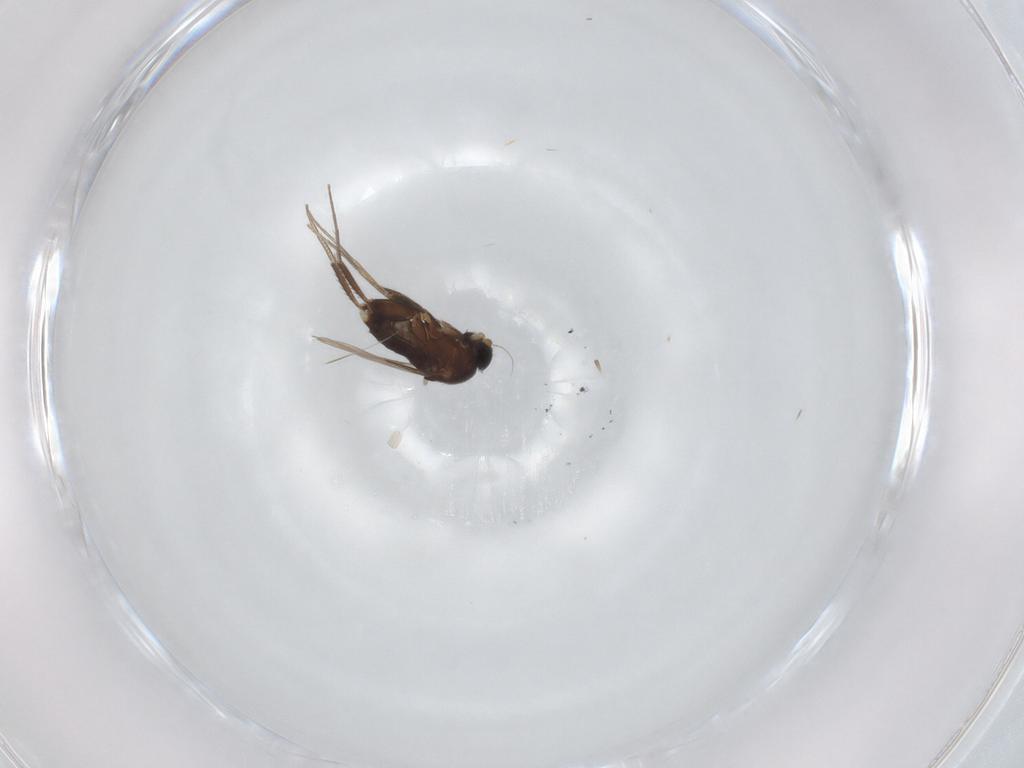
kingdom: Animalia
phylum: Arthropoda
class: Insecta
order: Diptera
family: Phoridae
